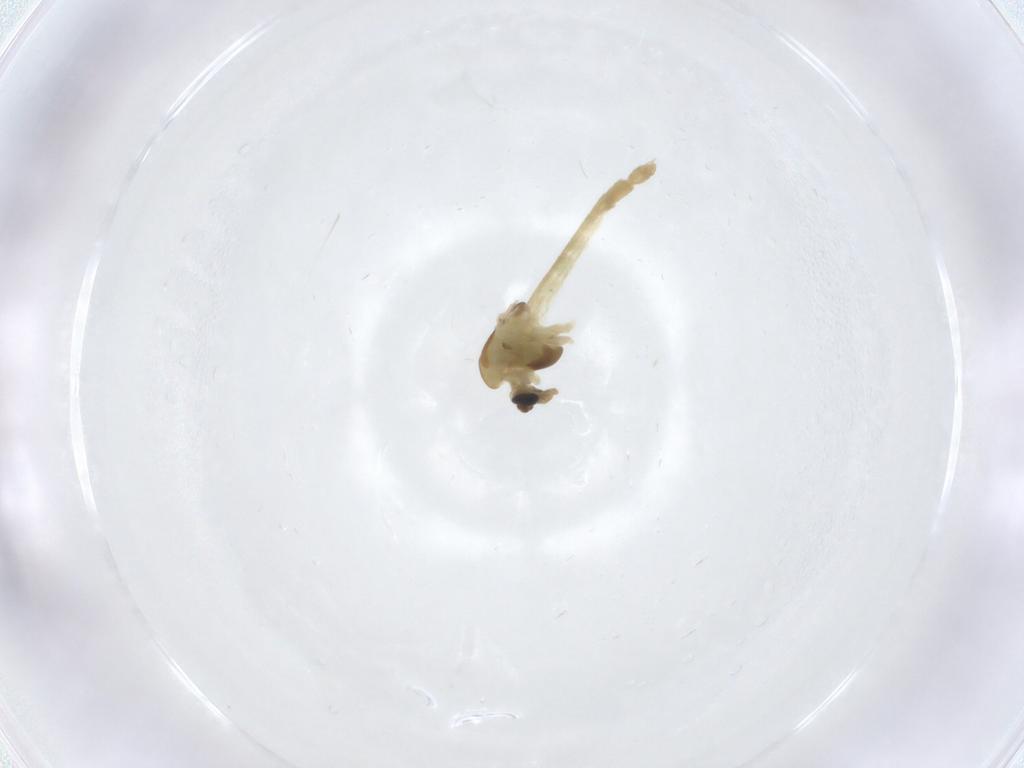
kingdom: Animalia
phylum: Arthropoda
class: Insecta
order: Diptera
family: Chironomidae
